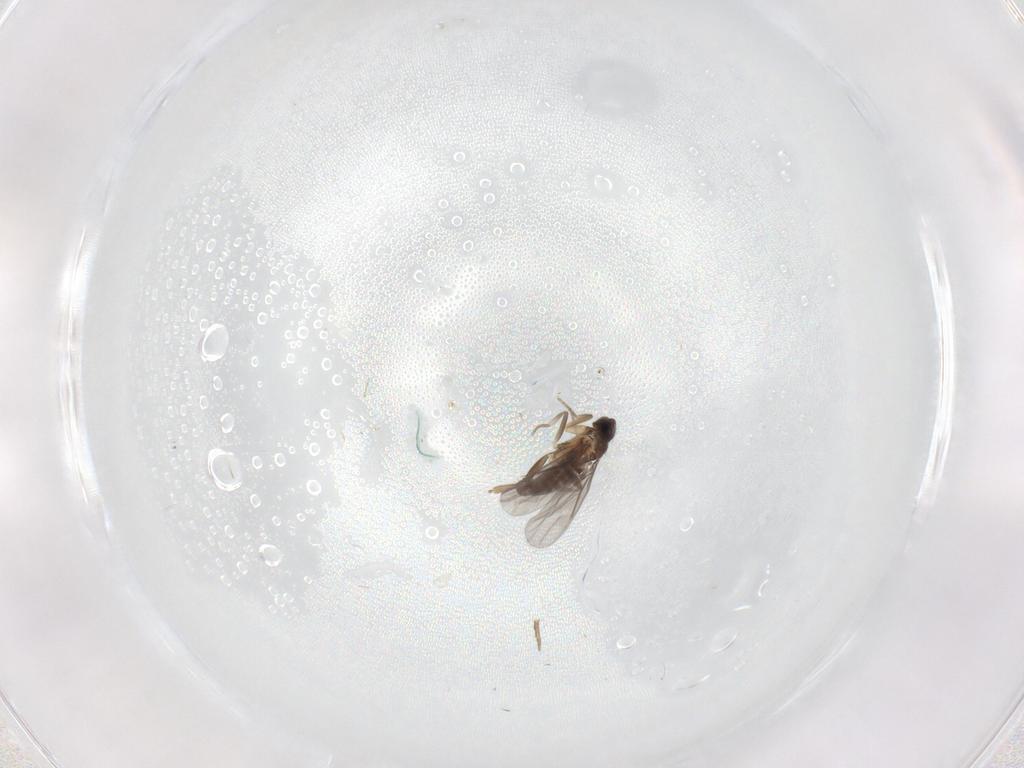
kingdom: Animalia
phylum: Arthropoda
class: Insecta
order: Diptera
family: Ceratopogonidae
